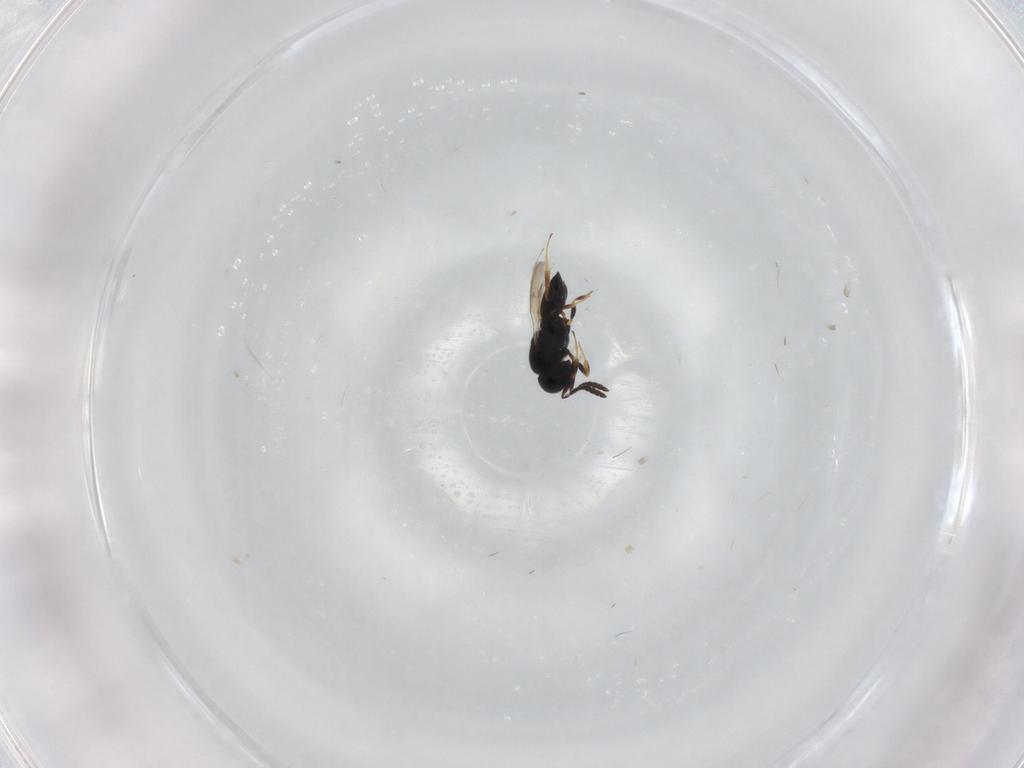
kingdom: Animalia
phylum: Arthropoda
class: Insecta
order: Hymenoptera
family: Scelionidae
